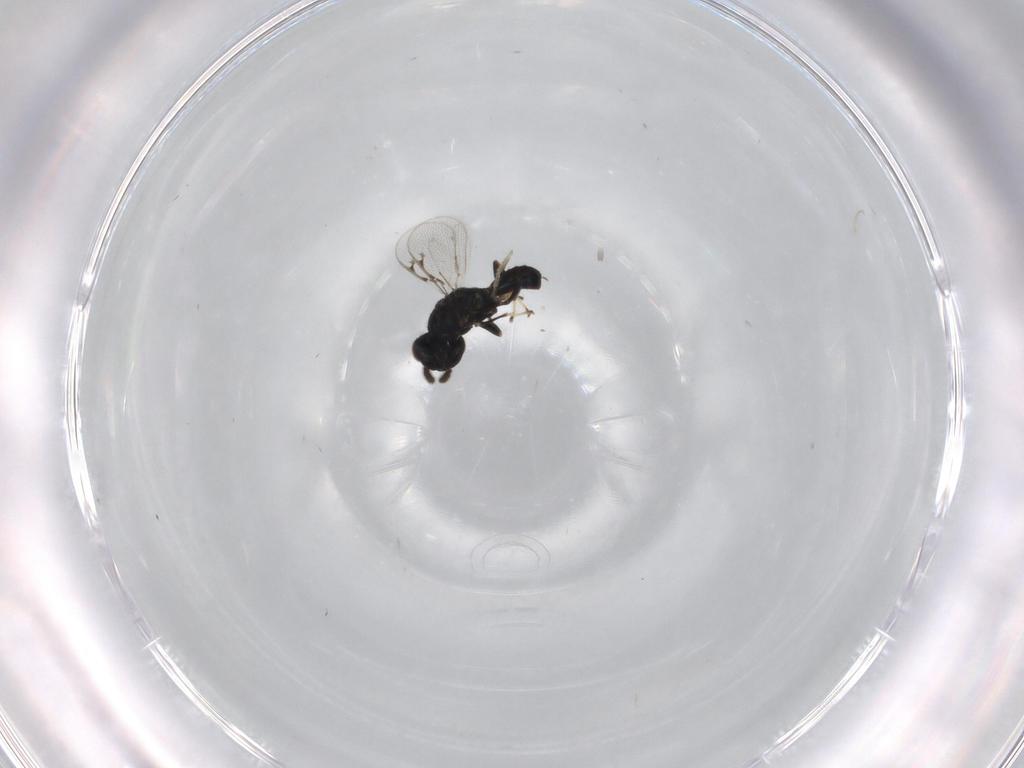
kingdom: Animalia
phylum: Arthropoda
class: Insecta
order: Hymenoptera
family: Pteromalidae
